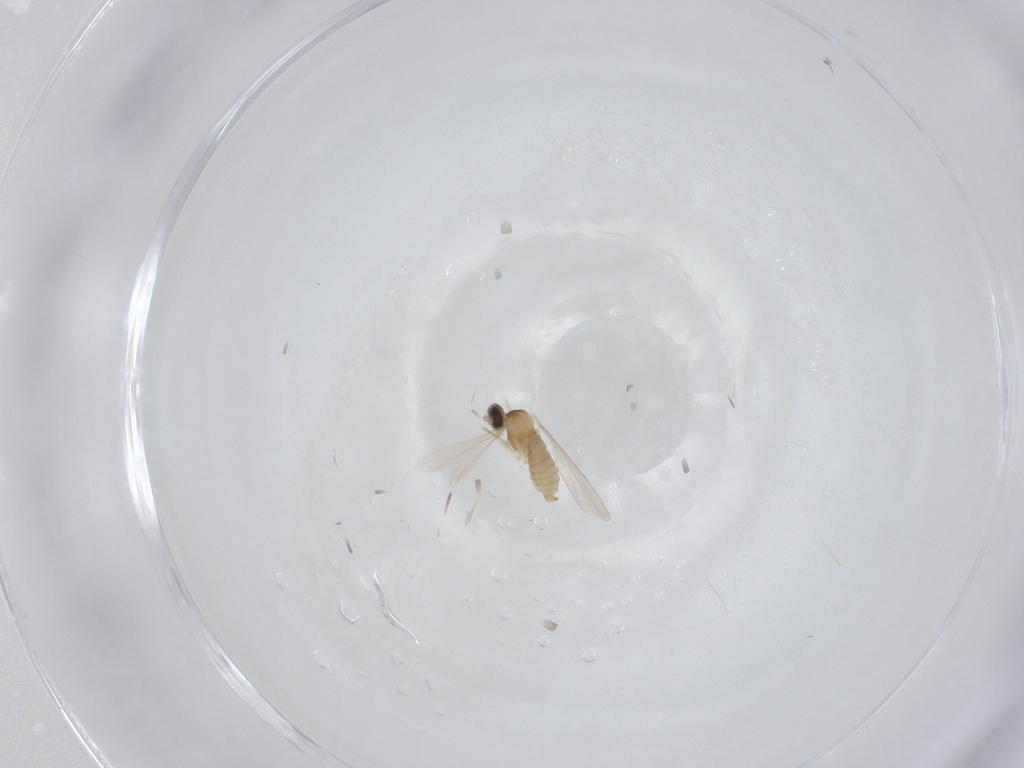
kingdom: Animalia
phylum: Arthropoda
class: Insecta
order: Diptera
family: Cecidomyiidae
